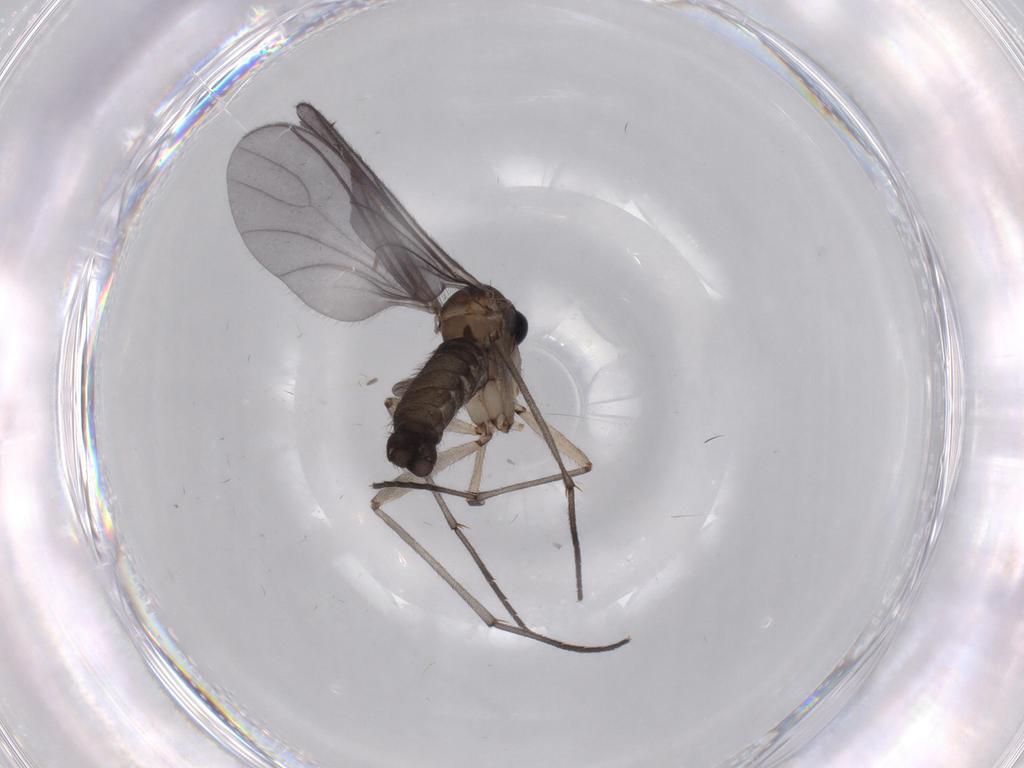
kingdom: Animalia
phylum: Arthropoda
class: Insecta
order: Diptera
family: Sciaridae
